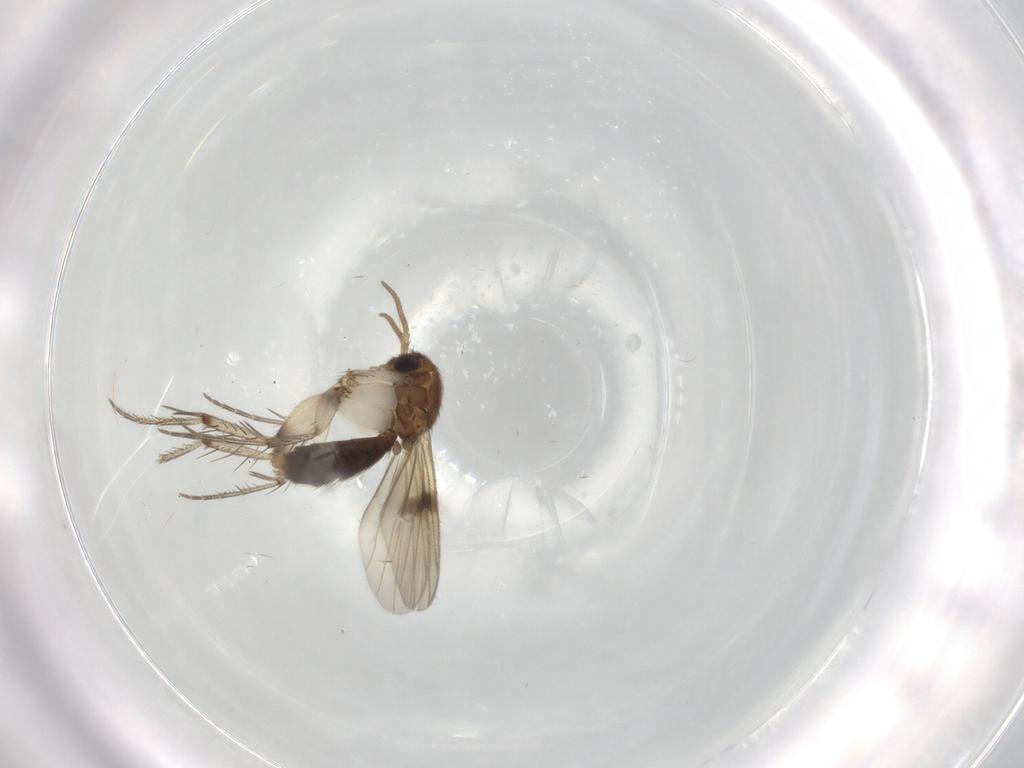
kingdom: Animalia
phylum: Arthropoda
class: Insecta
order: Diptera
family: Mycetophilidae
